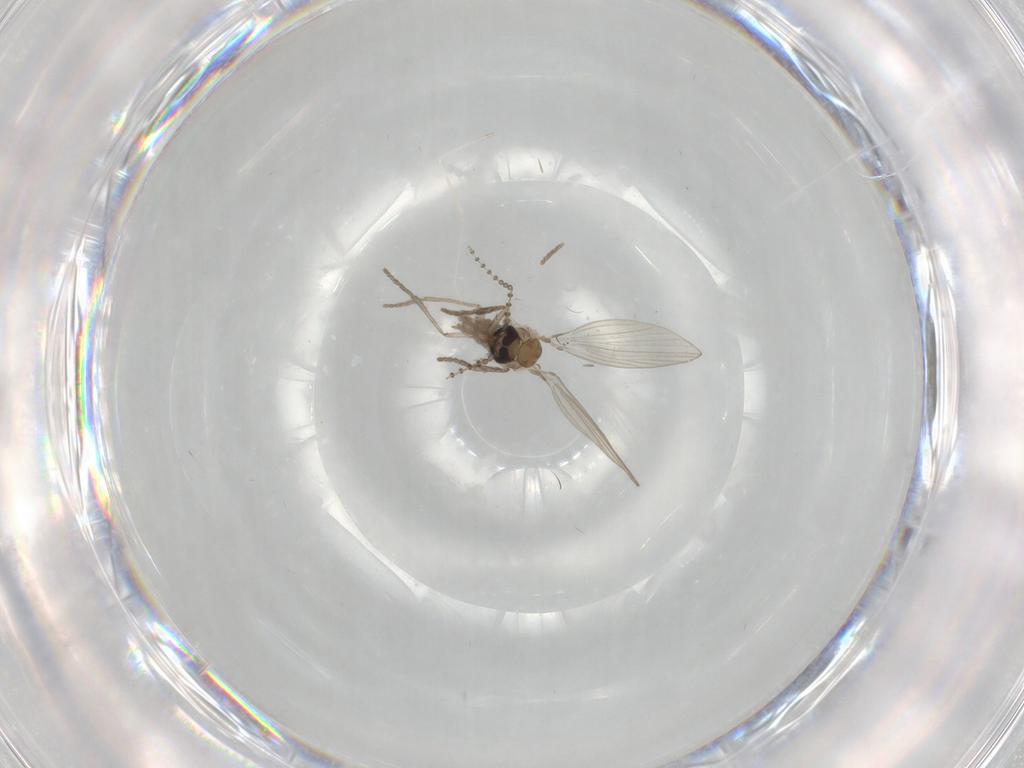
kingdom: Animalia
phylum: Arthropoda
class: Insecta
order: Diptera
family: Psychodidae
